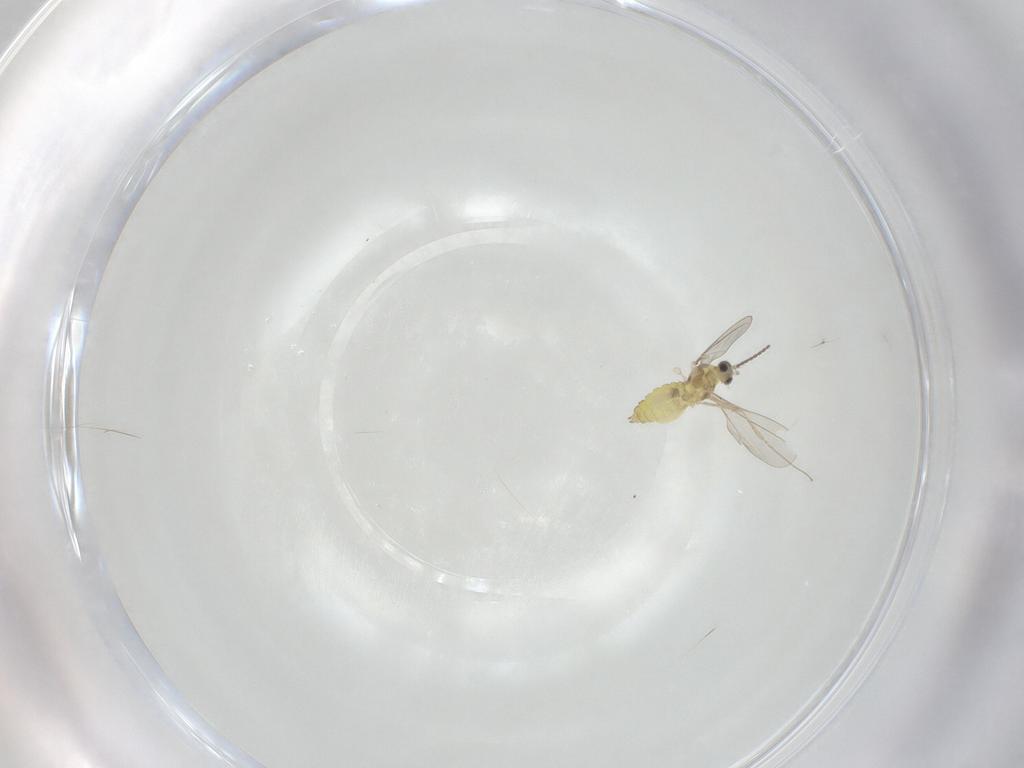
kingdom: Animalia
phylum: Arthropoda
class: Insecta
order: Diptera
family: Cecidomyiidae
